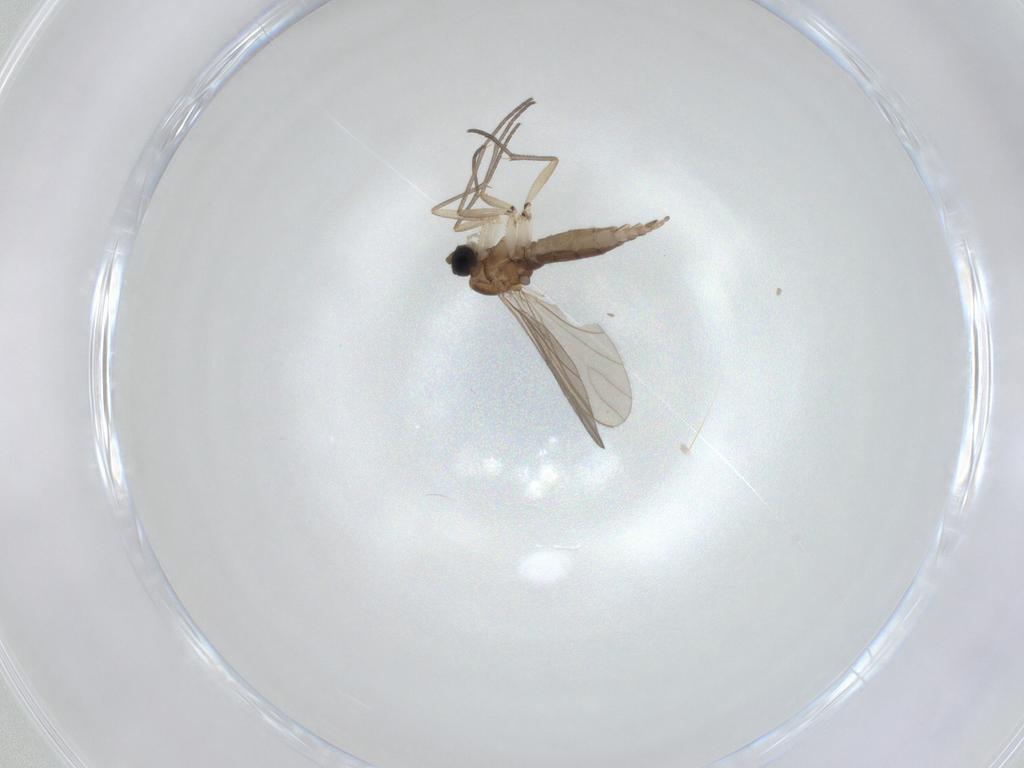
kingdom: Animalia
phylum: Arthropoda
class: Insecta
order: Diptera
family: Sciaridae
